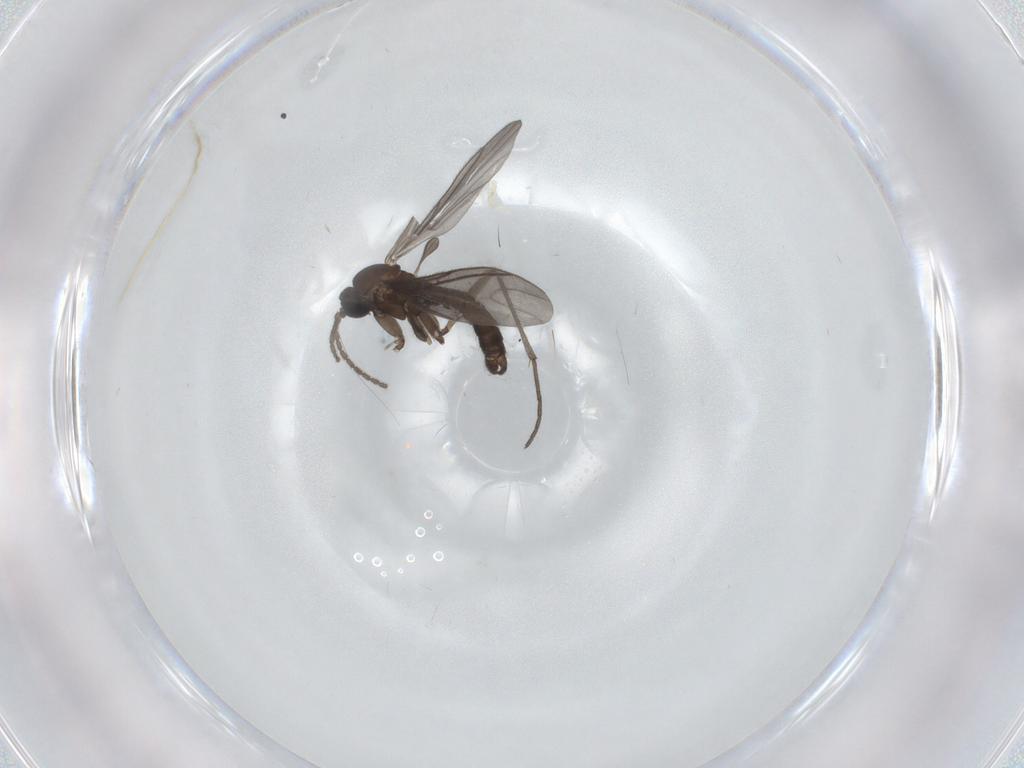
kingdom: Animalia
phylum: Arthropoda
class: Insecta
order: Diptera
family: Sciaridae
